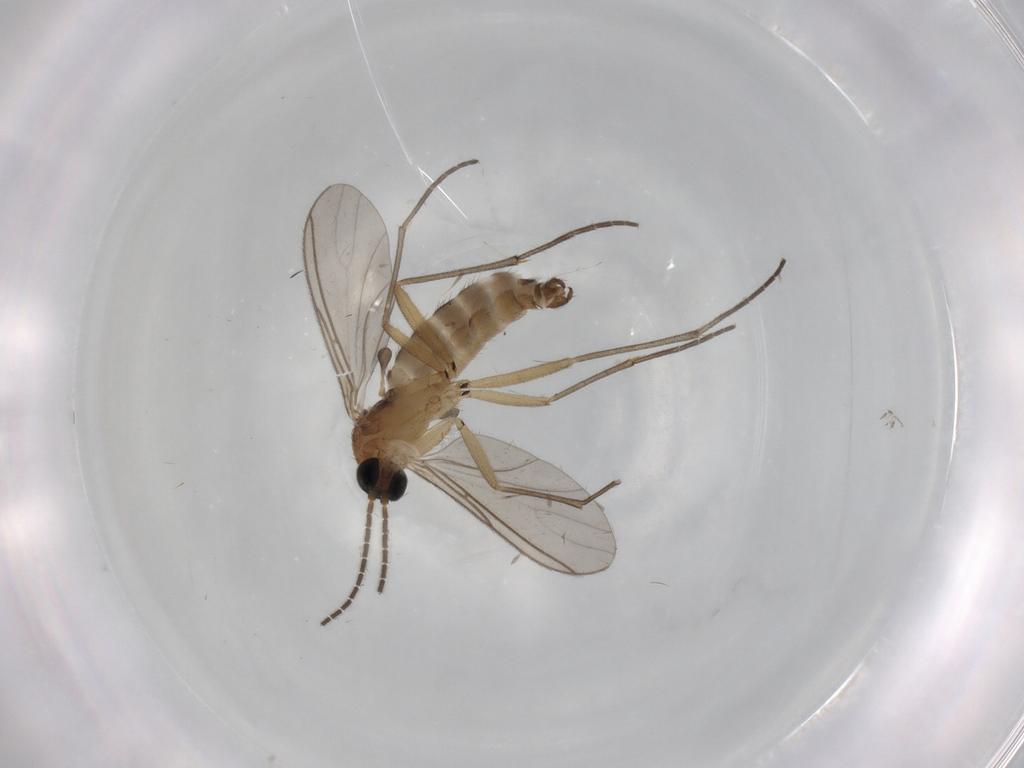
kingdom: Animalia
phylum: Arthropoda
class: Insecta
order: Diptera
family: Sciaridae
